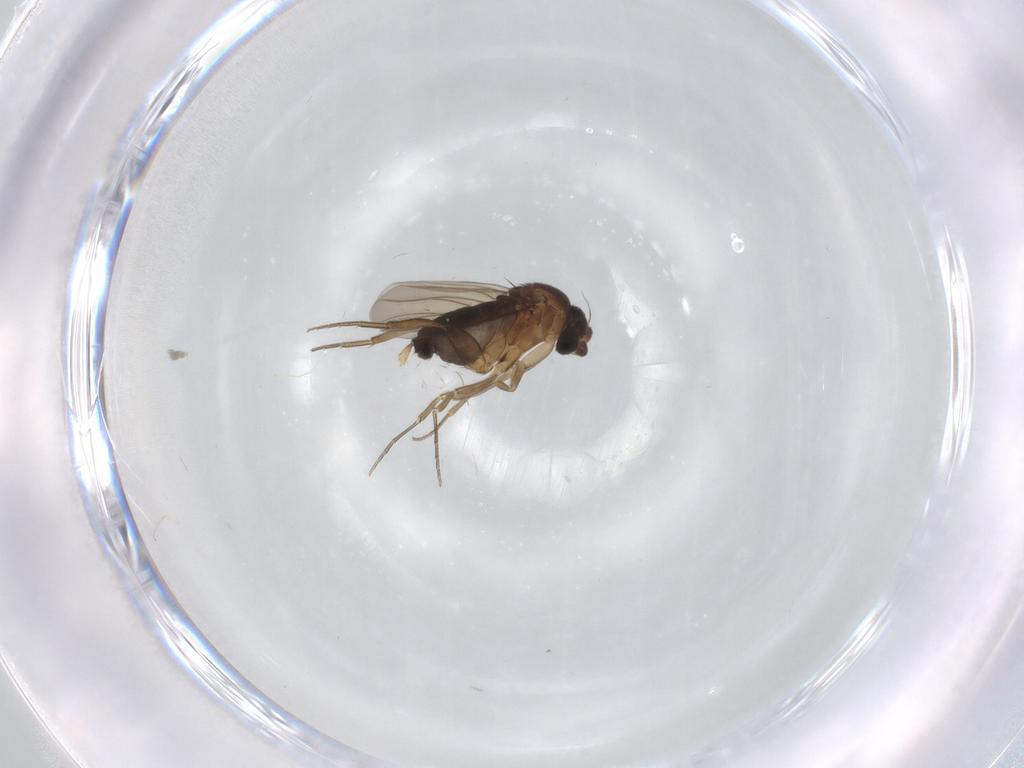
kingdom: Animalia
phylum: Arthropoda
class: Insecta
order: Diptera
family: Phoridae
